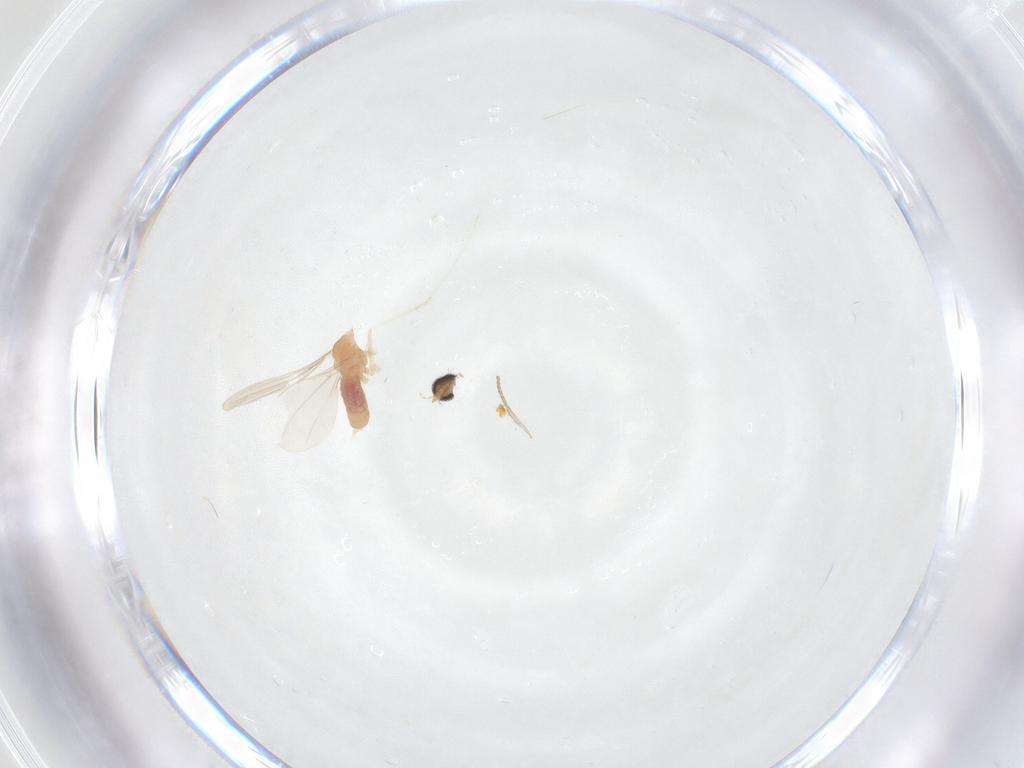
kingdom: Animalia
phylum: Arthropoda
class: Insecta
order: Diptera
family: Cecidomyiidae
